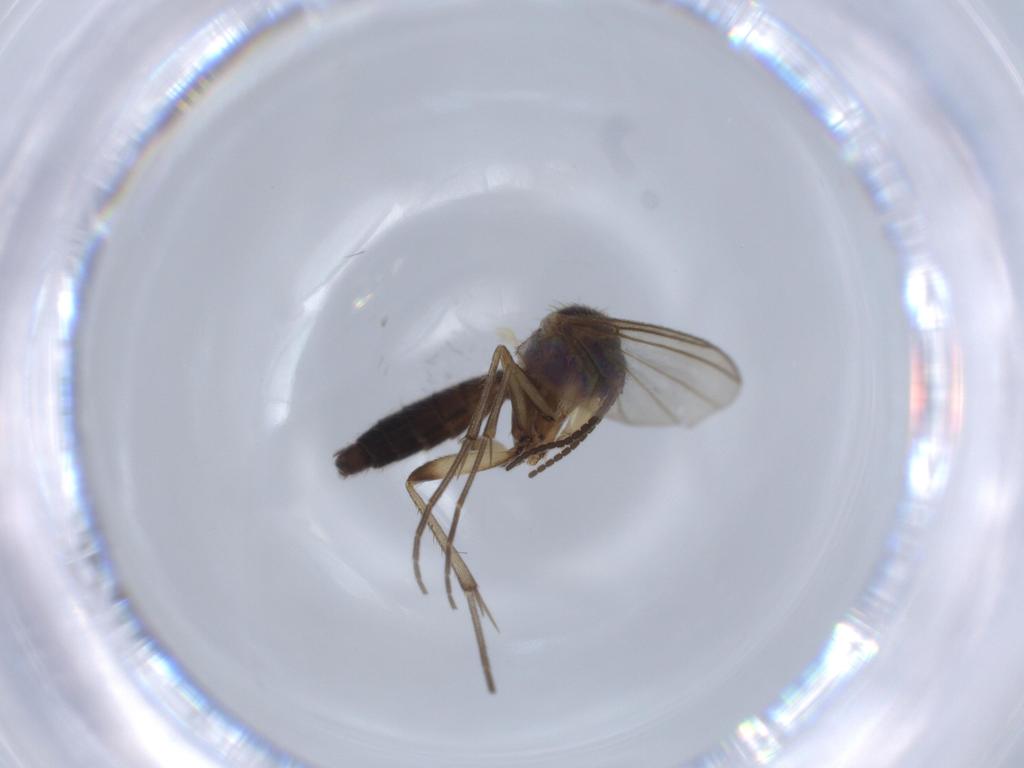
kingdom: Animalia
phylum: Arthropoda
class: Insecta
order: Diptera
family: Mycetophilidae
